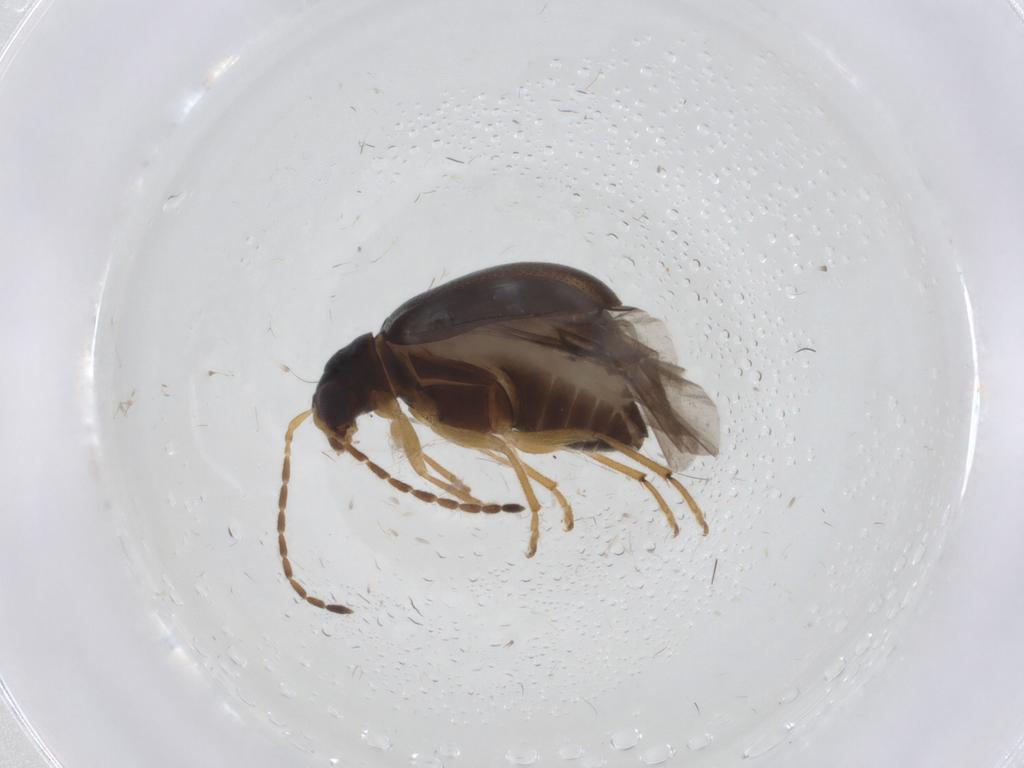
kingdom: Animalia
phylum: Arthropoda
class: Insecta
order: Coleoptera
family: Chrysomelidae
